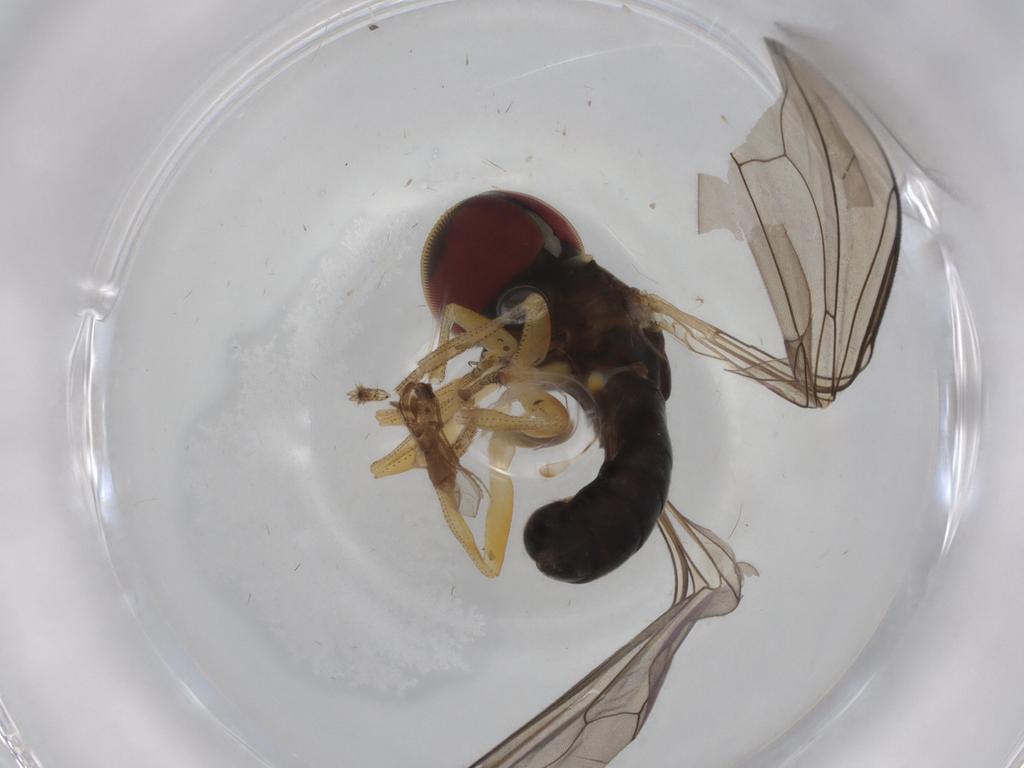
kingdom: Animalia
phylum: Arthropoda
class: Insecta
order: Diptera
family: Pipunculidae
